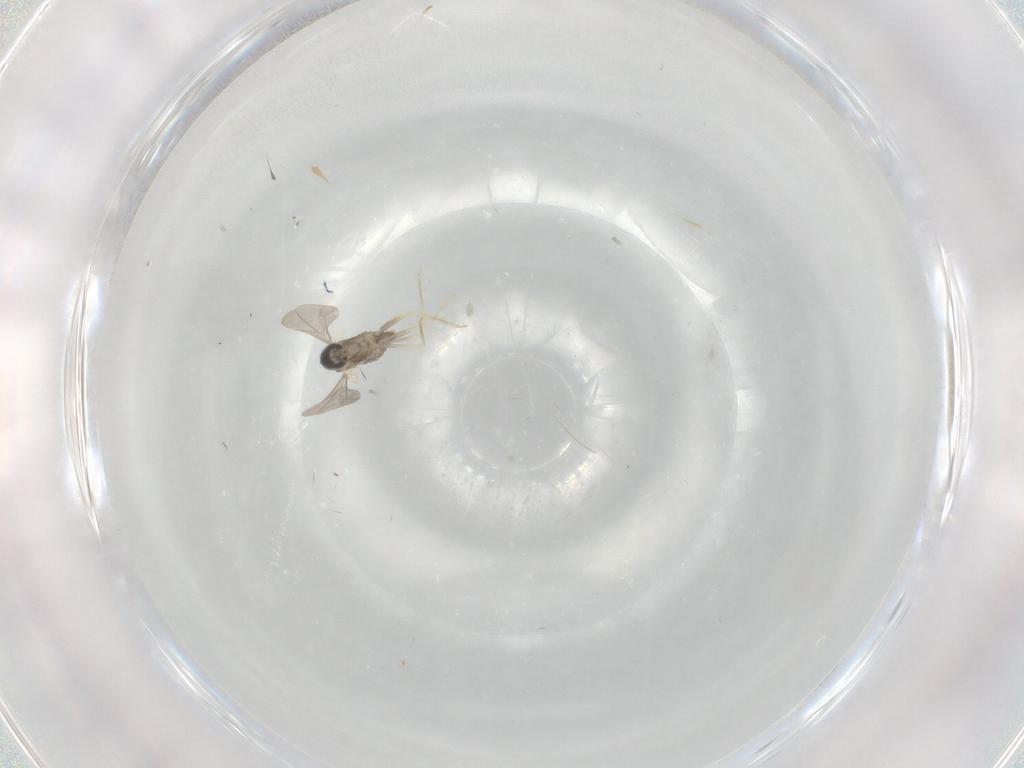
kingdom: Animalia
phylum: Arthropoda
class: Insecta
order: Diptera
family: Cecidomyiidae
